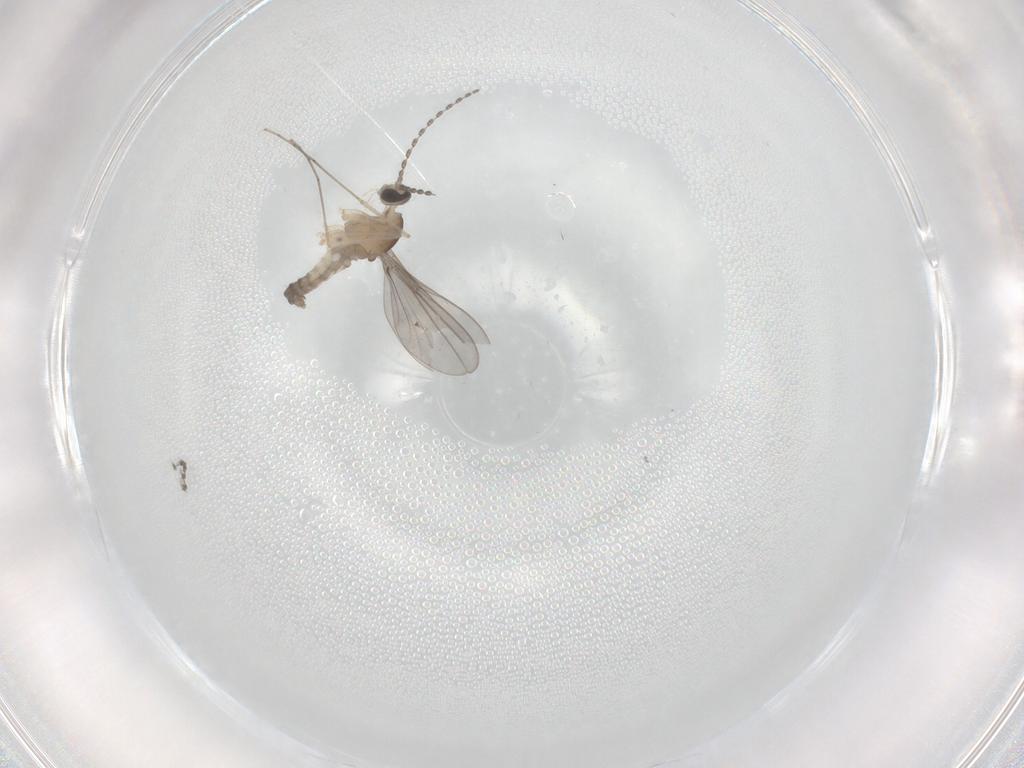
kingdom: Animalia
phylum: Arthropoda
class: Insecta
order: Diptera
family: Cecidomyiidae
